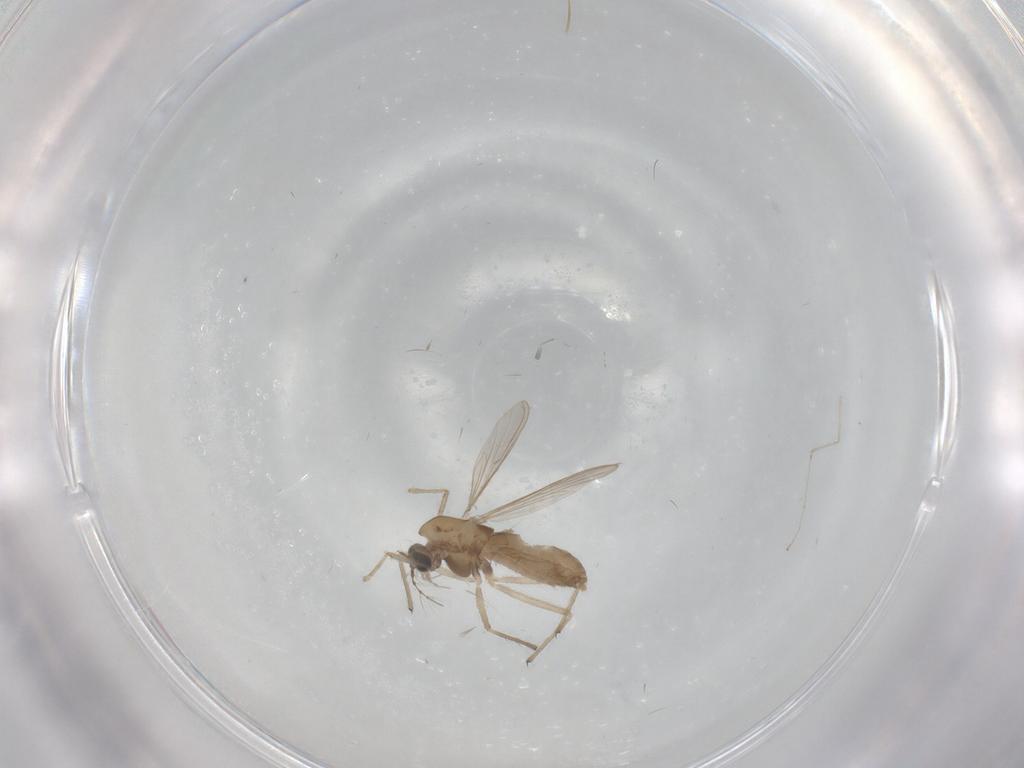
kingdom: Animalia
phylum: Arthropoda
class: Insecta
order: Diptera
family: Chironomidae
